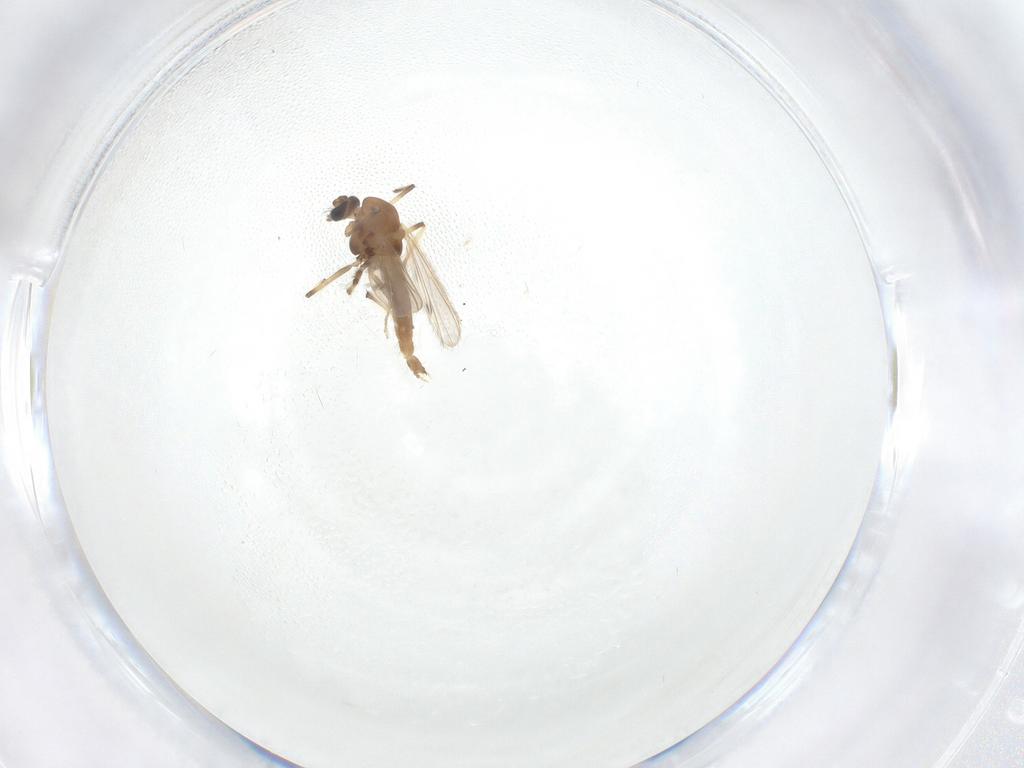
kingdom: Animalia
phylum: Arthropoda
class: Insecta
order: Diptera
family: Chironomidae
